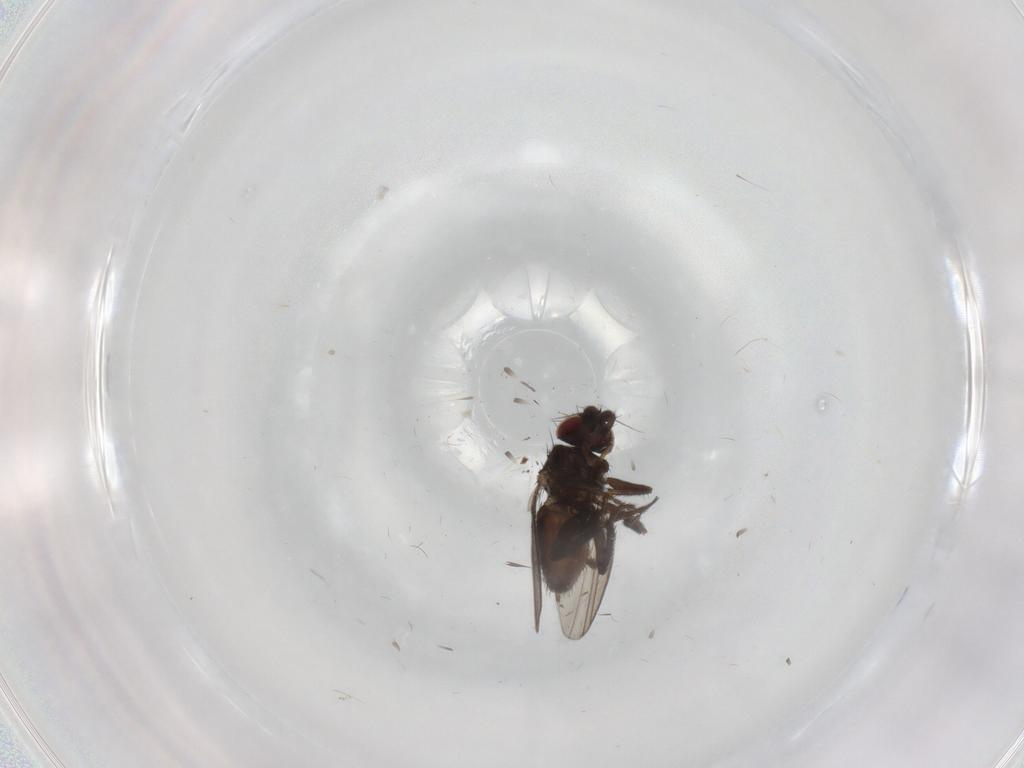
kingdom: Animalia
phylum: Arthropoda
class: Insecta
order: Diptera
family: Milichiidae
